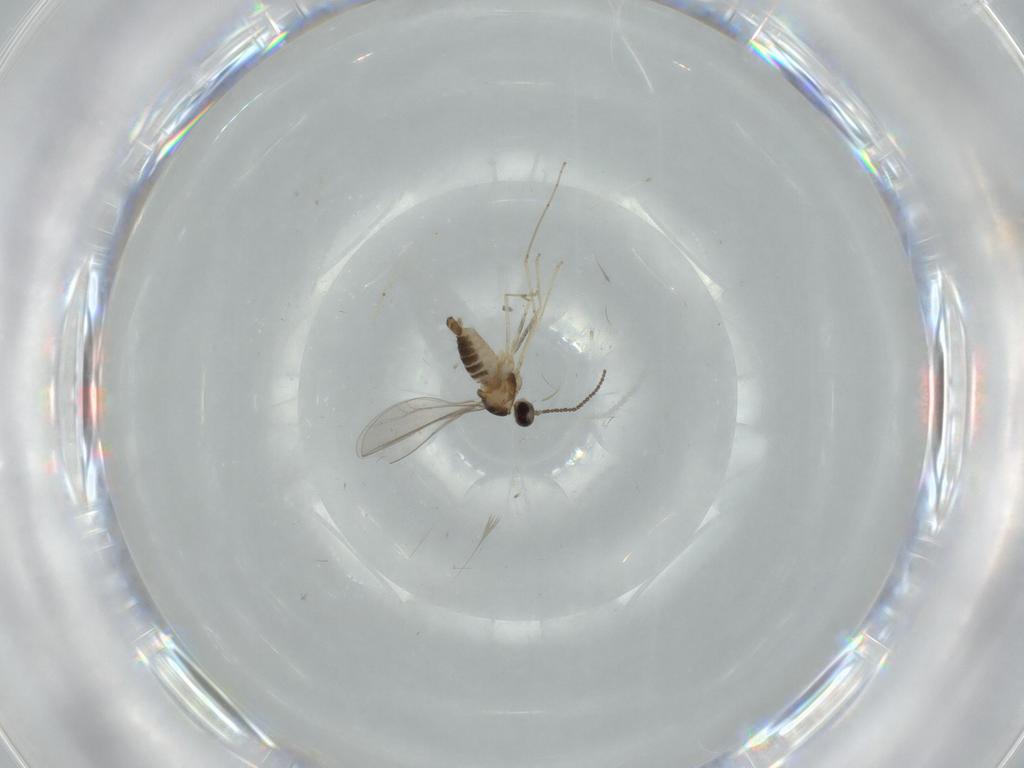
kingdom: Animalia
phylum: Arthropoda
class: Insecta
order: Diptera
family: Cecidomyiidae
